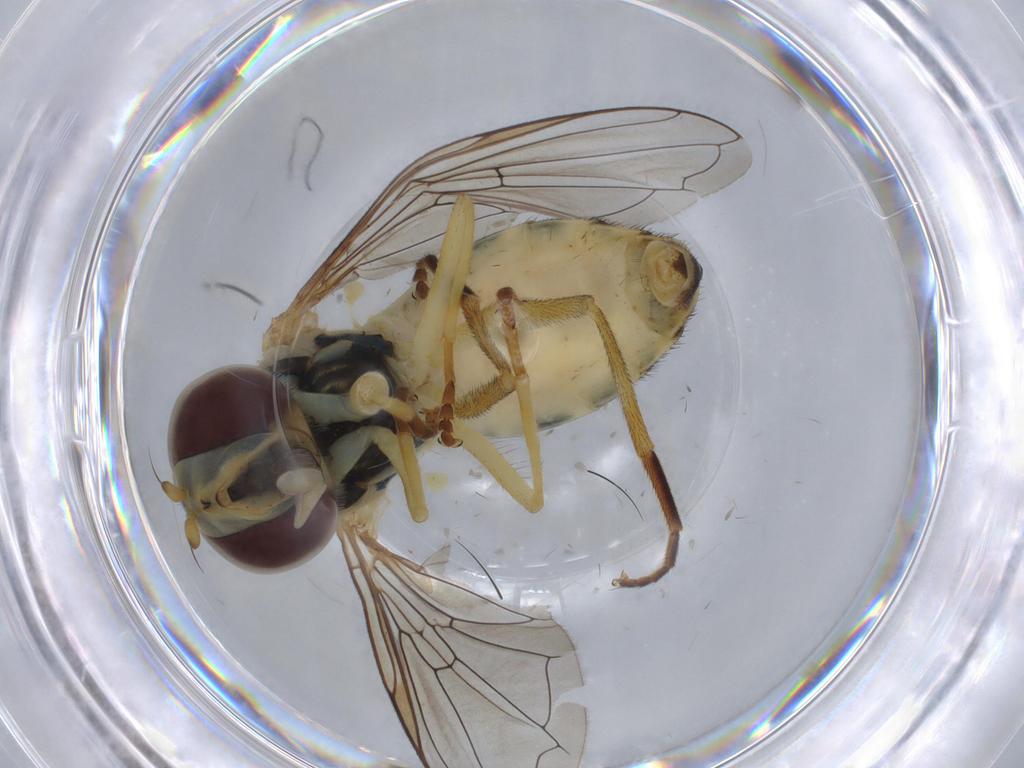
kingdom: Animalia
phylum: Arthropoda
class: Insecta
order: Diptera
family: Syrphidae
